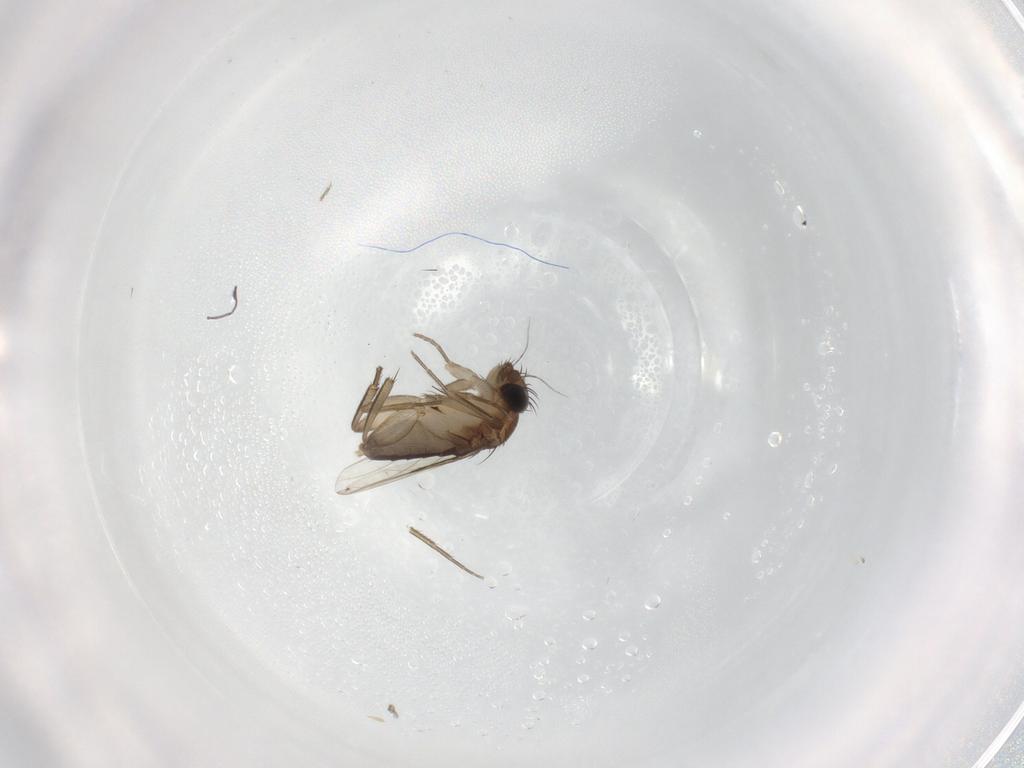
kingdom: Animalia
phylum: Arthropoda
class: Insecta
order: Diptera
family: Phoridae
